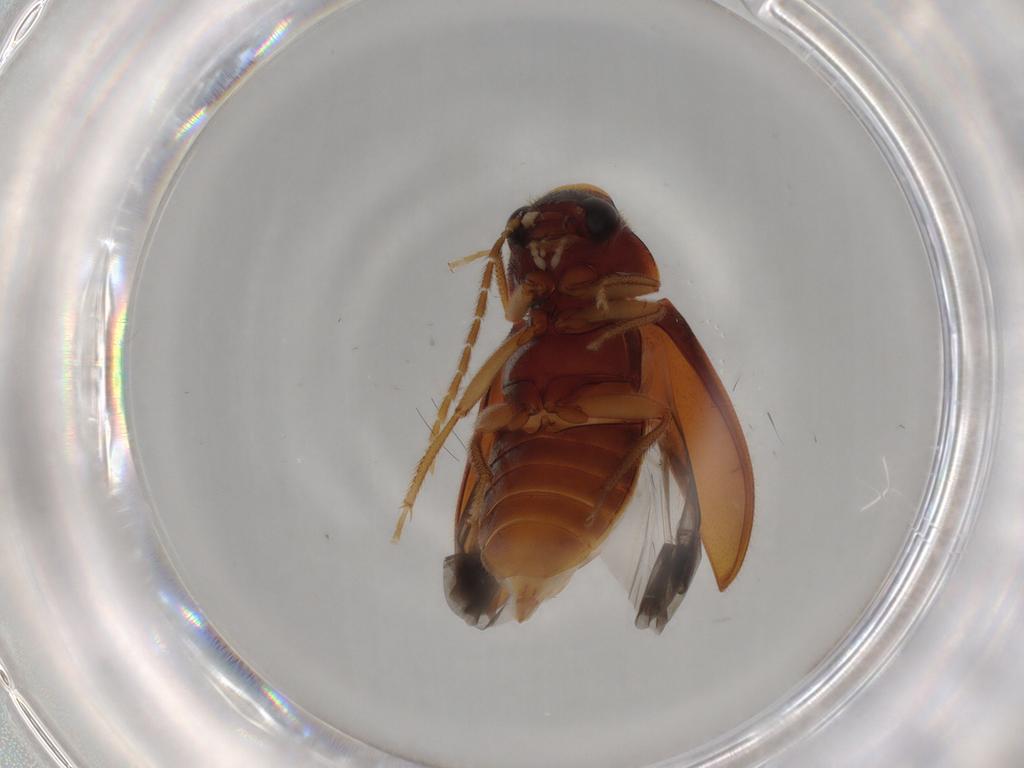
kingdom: Animalia
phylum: Arthropoda
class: Insecta
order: Coleoptera
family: Ptilodactylidae
